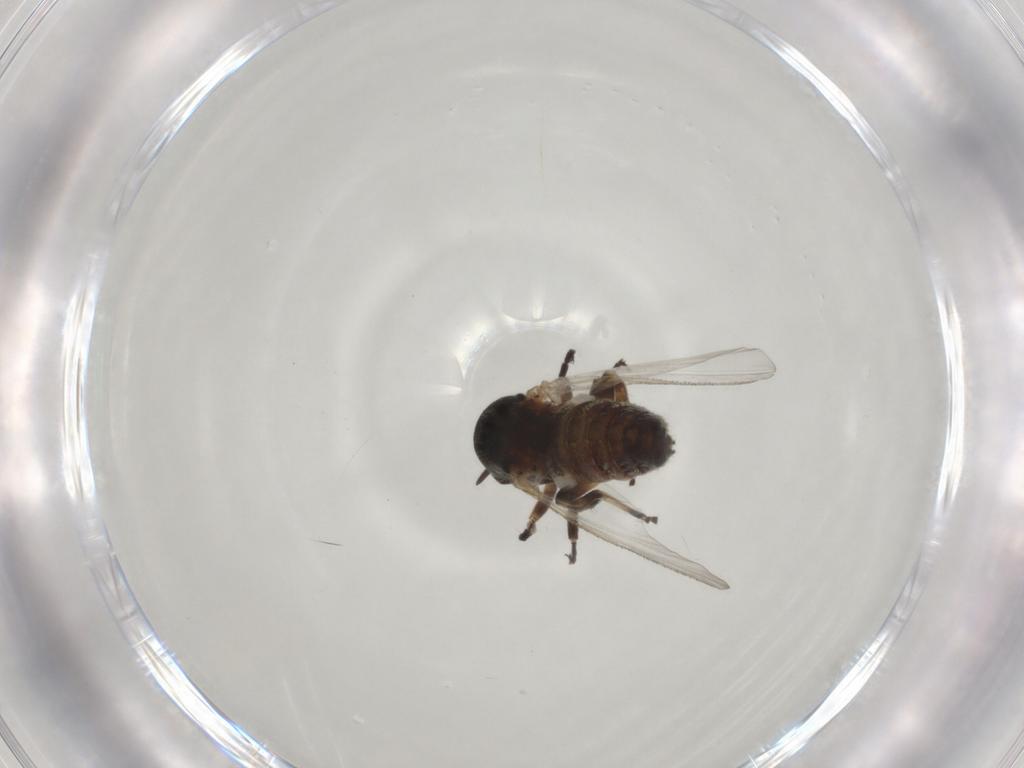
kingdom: Animalia
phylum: Arthropoda
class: Insecta
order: Diptera
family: Simuliidae
